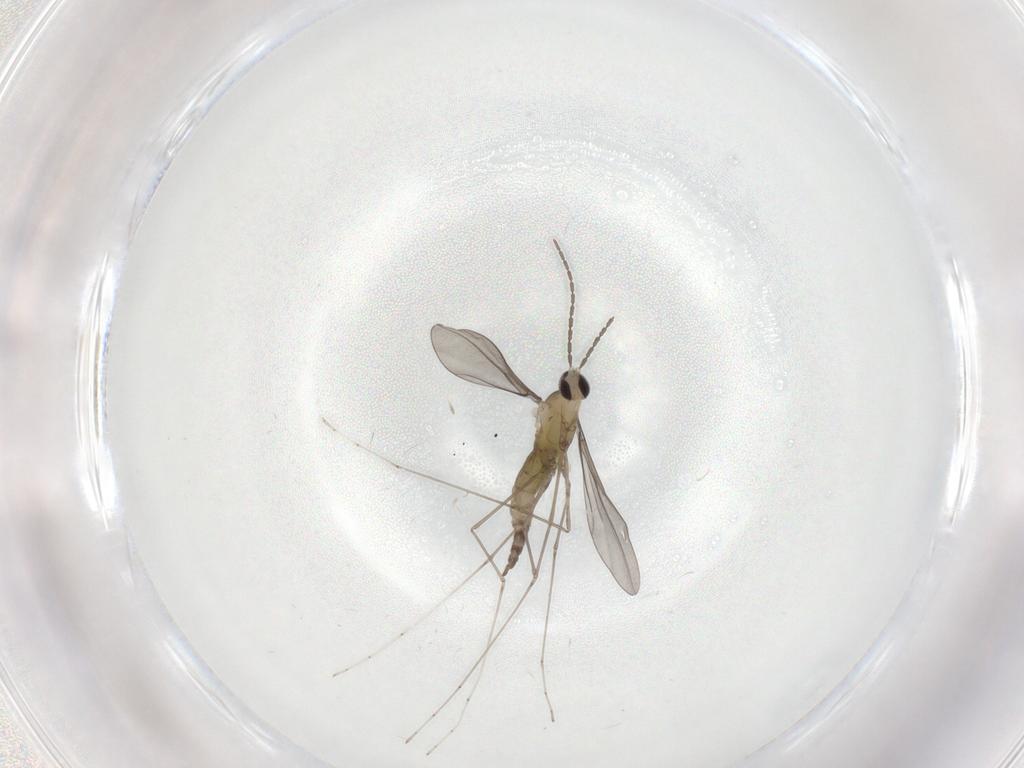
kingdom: Animalia
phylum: Arthropoda
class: Insecta
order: Diptera
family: Cecidomyiidae
